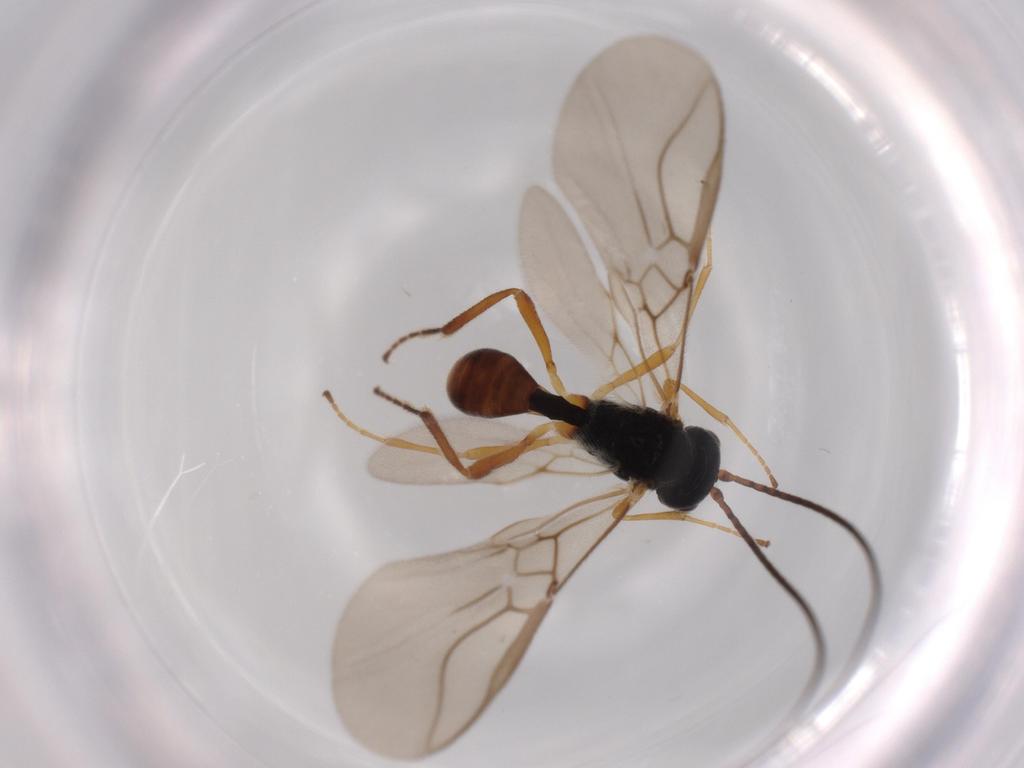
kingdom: Animalia
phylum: Arthropoda
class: Insecta
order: Hymenoptera
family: Braconidae
